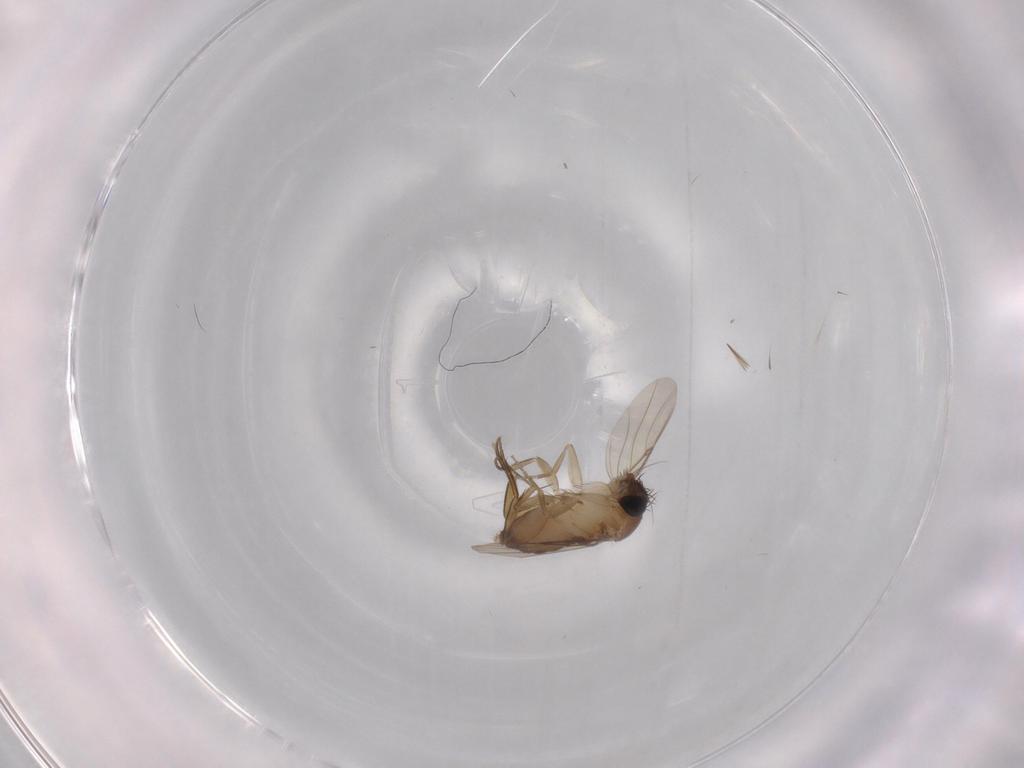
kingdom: Animalia
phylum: Arthropoda
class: Insecta
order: Diptera
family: Phoridae
